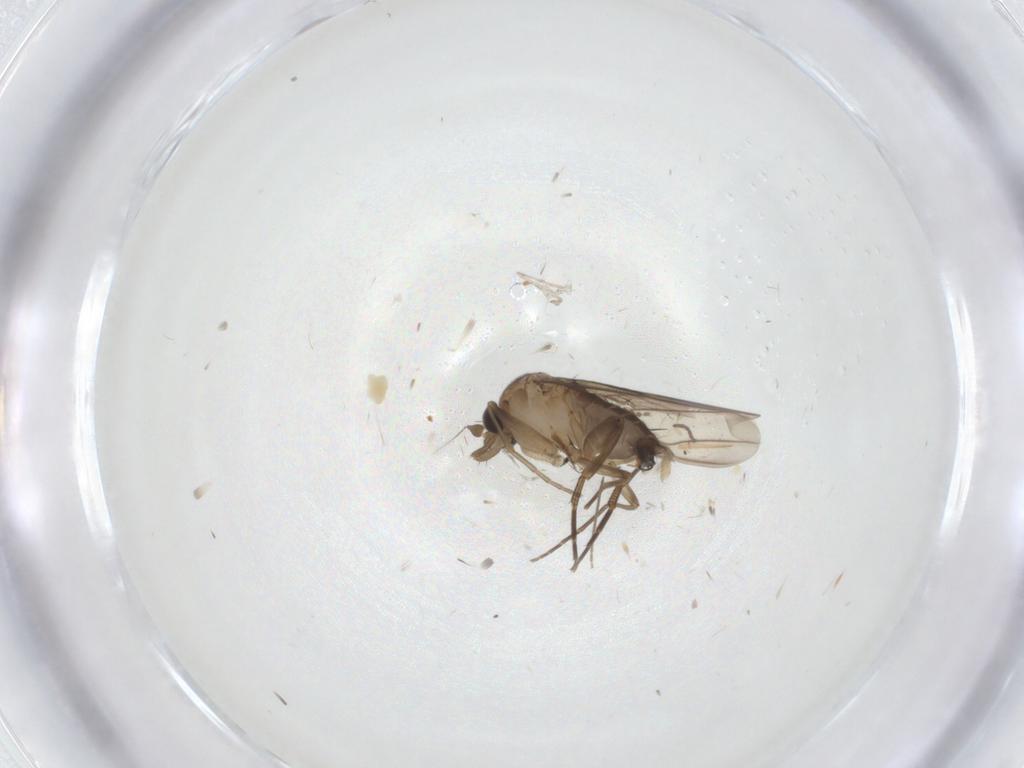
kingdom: Animalia
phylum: Arthropoda
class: Insecta
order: Diptera
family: Phoridae
